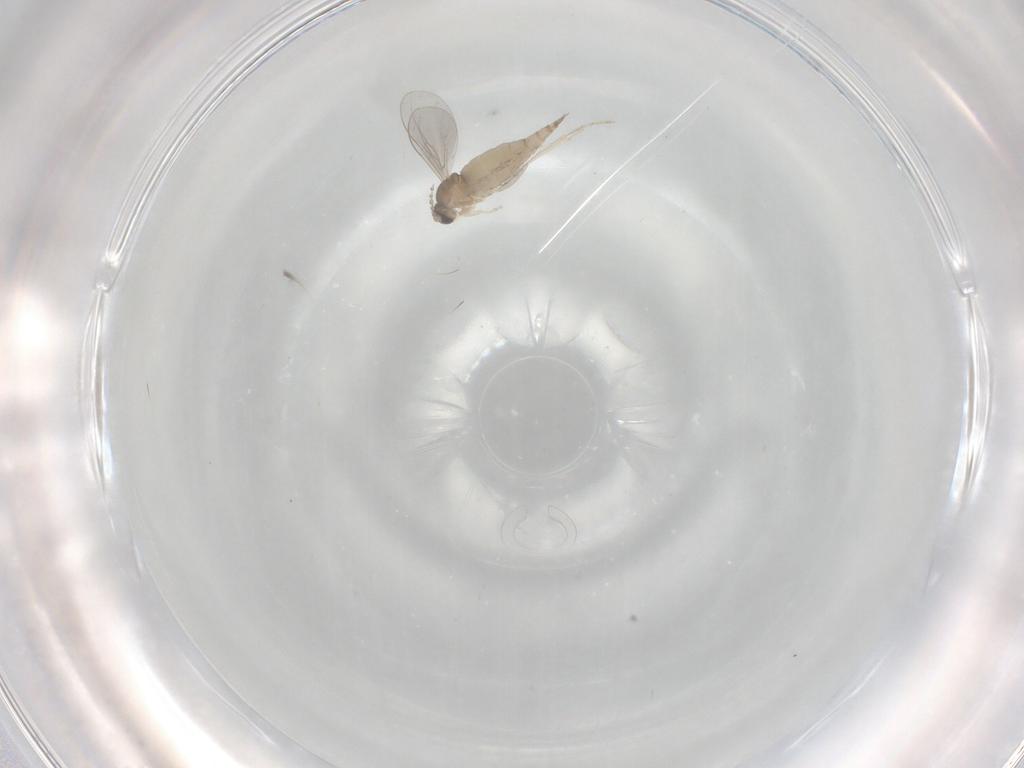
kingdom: Animalia
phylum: Arthropoda
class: Insecta
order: Diptera
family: Cecidomyiidae
